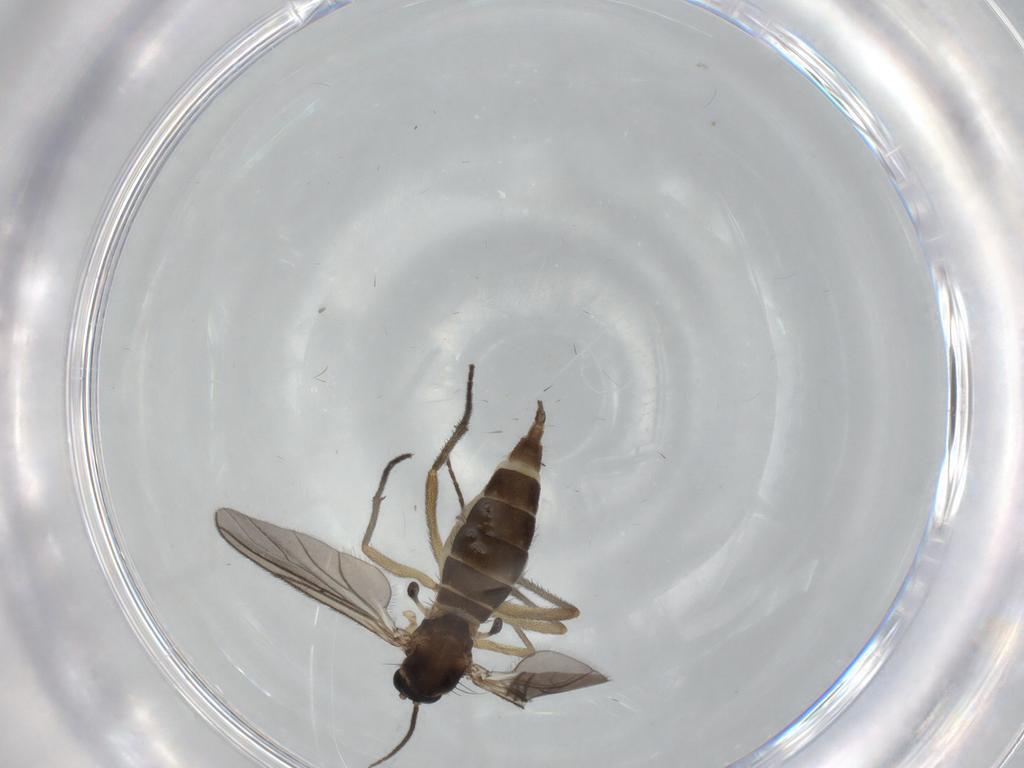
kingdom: Animalia
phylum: Arthropoda
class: Insecta
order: Diptera
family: Sciaridae
